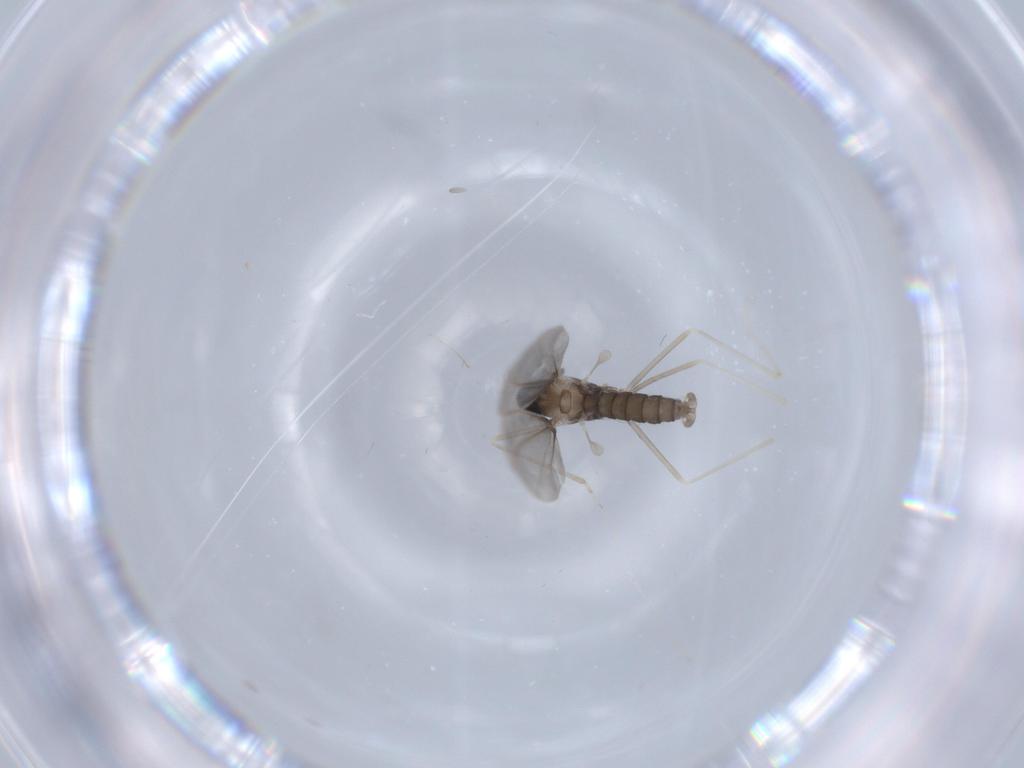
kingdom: Animalia
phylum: Arthropoda
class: Insecta
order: Diptera
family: Cecidomyiidae
